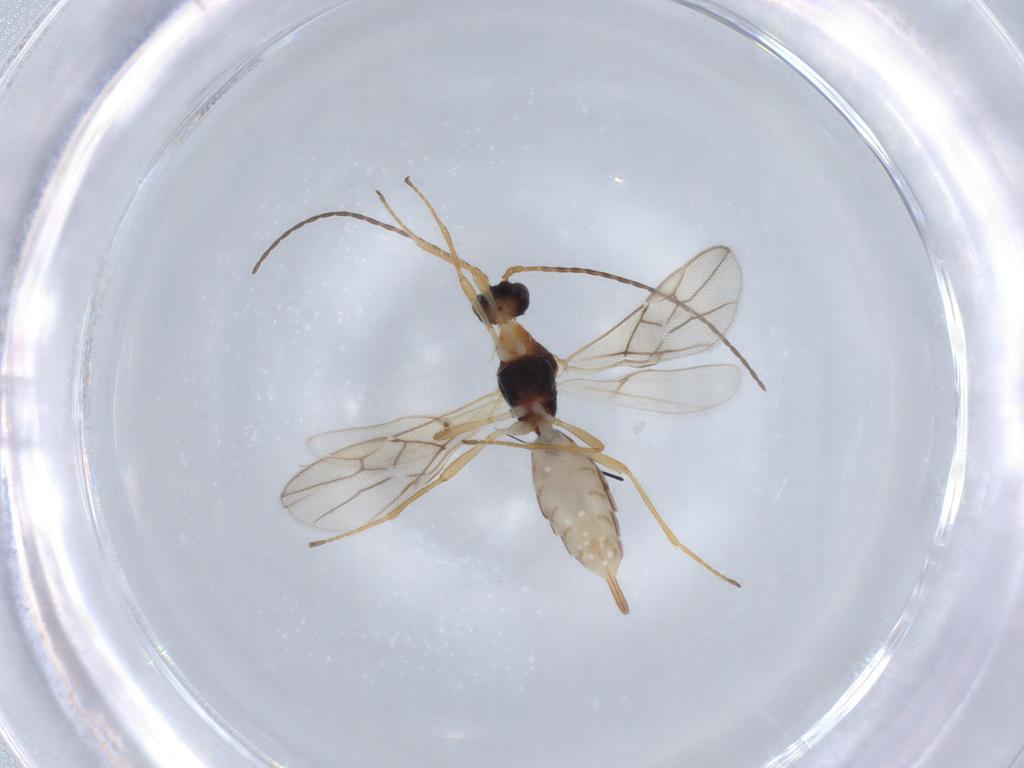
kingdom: Animalia
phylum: Arthropoda
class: Insecta
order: Hymenoptera
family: Braconidae
